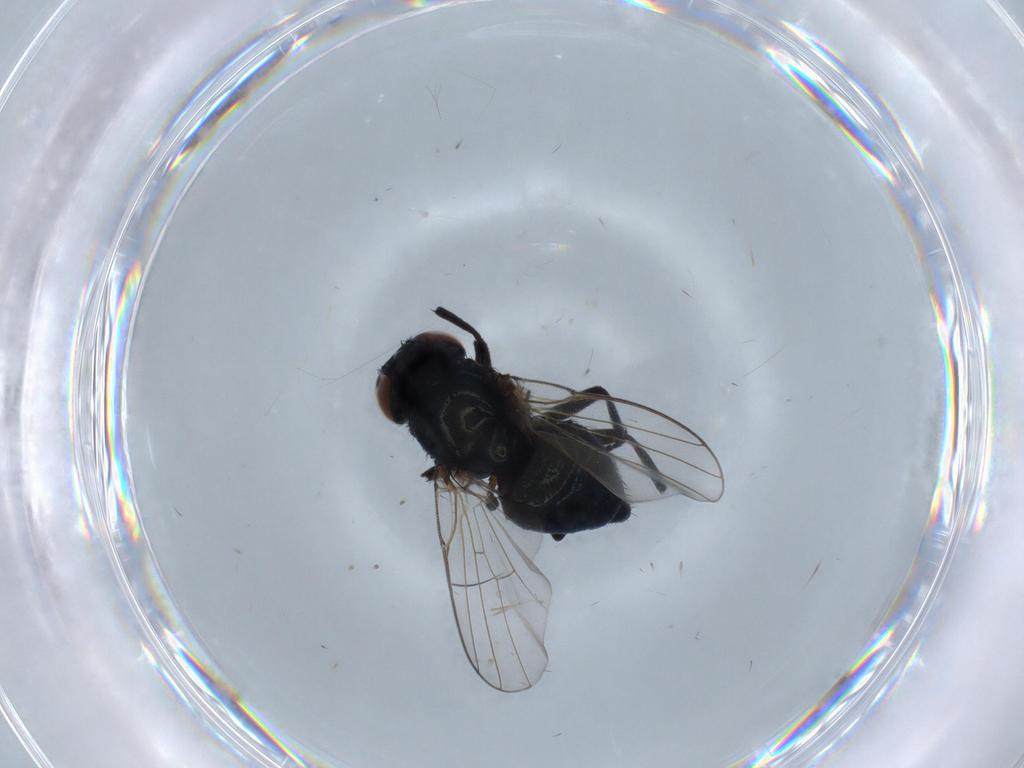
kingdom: Animalia
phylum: Arthropoda
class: Insecta
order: Diptera
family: Agromyzidae
